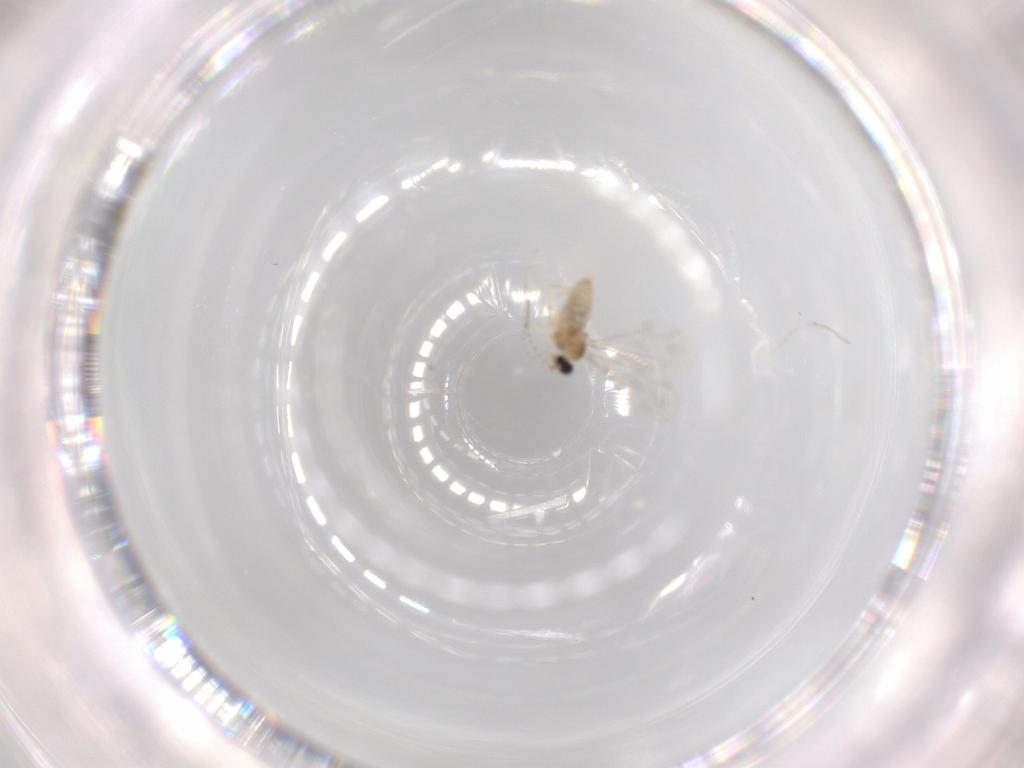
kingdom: Animalia
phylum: Arthropoda
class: Insecta
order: Diptera
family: Cecidomyiidae
